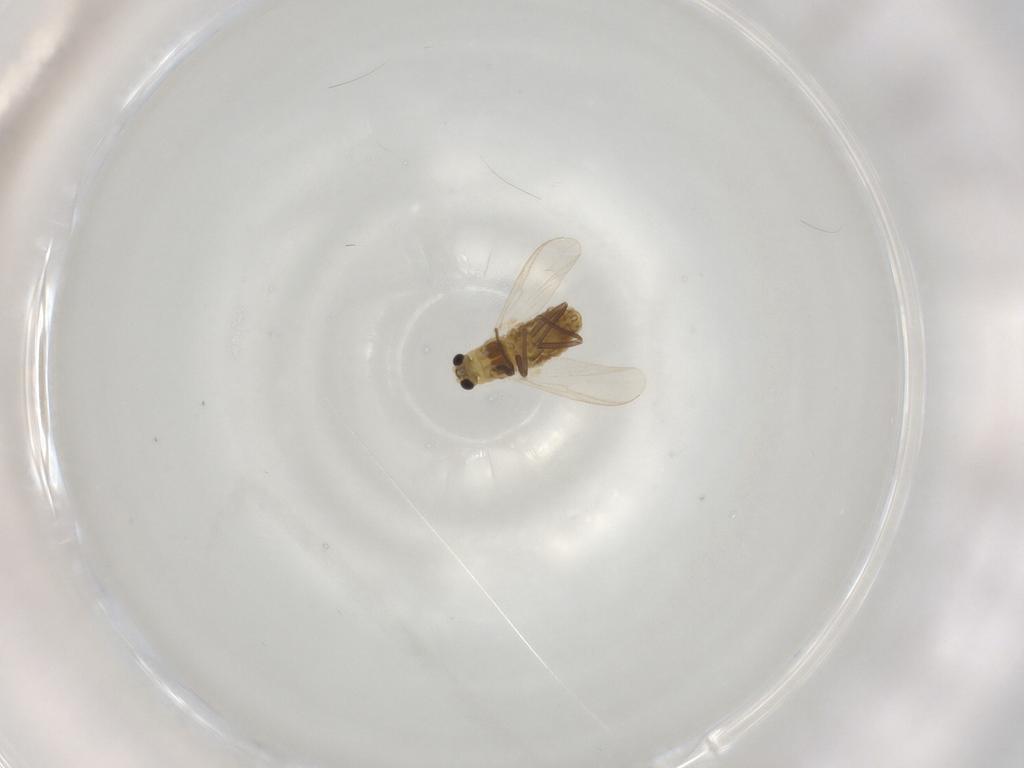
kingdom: Animalia
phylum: Arthropoda
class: Insecta
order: Diptera
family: Chironomidae
